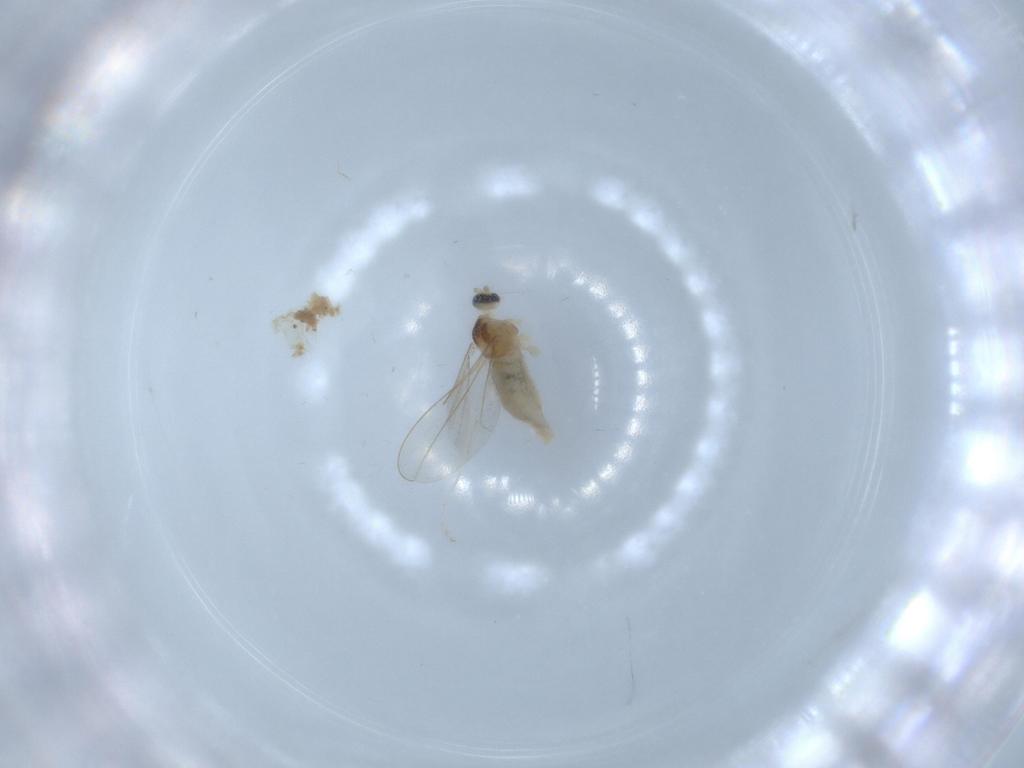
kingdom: Animalia
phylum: Arthropoda
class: Insecta
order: Diptera
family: Cecidomyiidae
